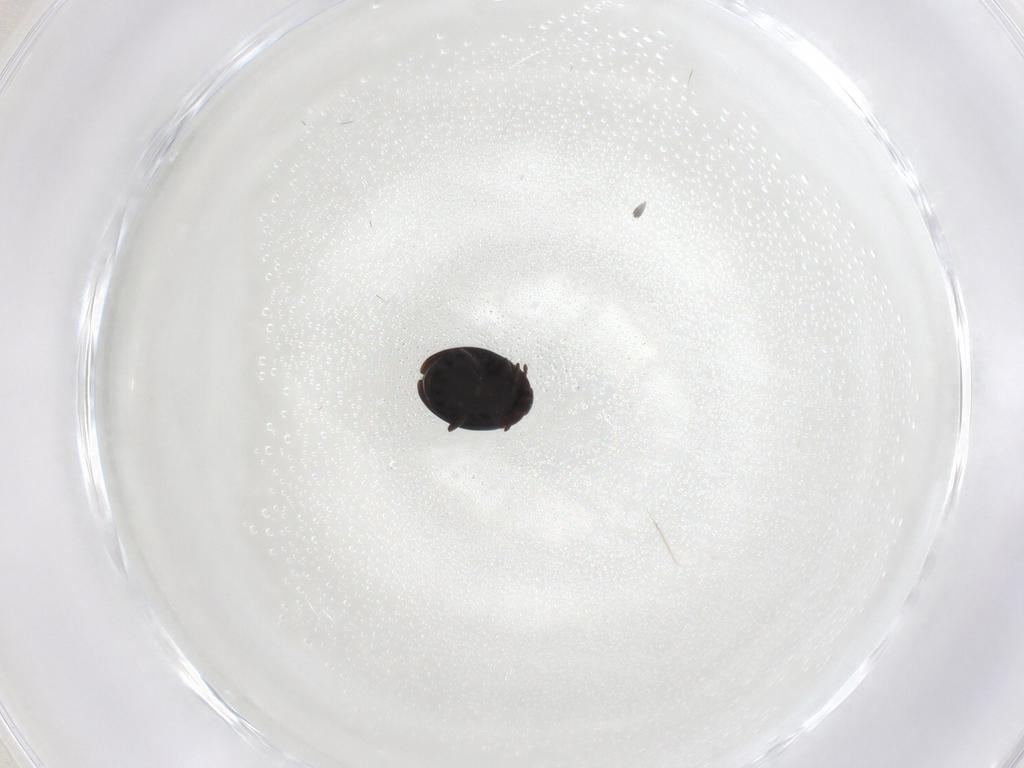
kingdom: Animalia
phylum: Arthropoda
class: Insecta
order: Coleoptera
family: Corylophidae
